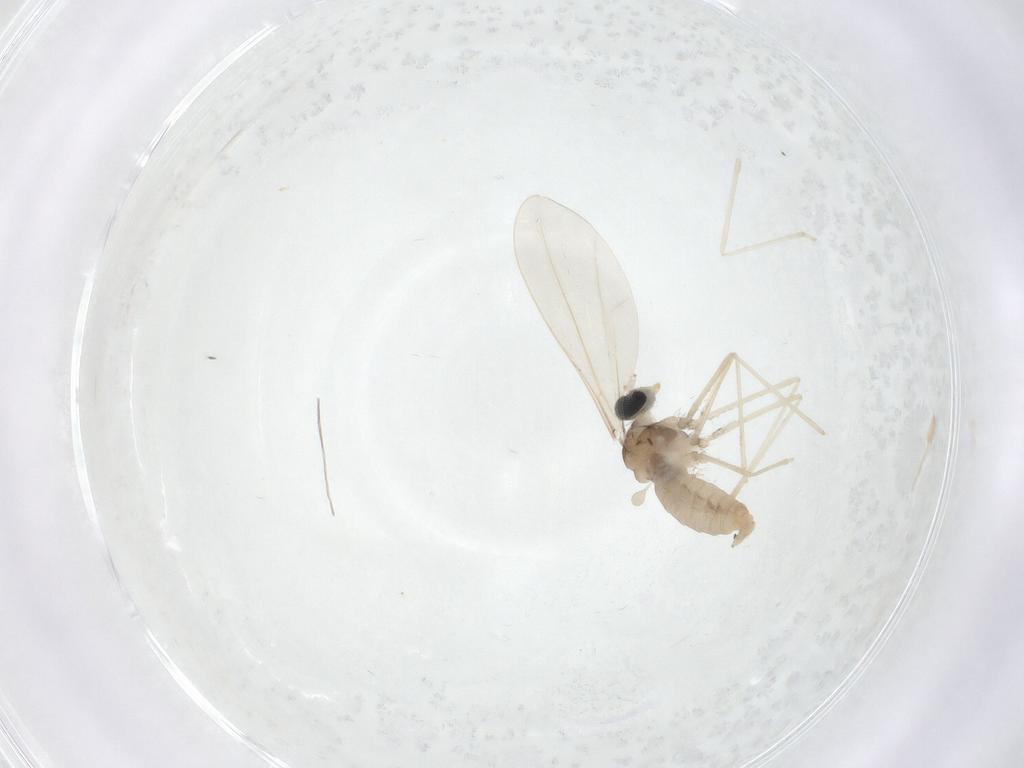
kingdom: Animalia
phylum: Arthropoda
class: Insecta
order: Diptera
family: Cecidomyiidae
